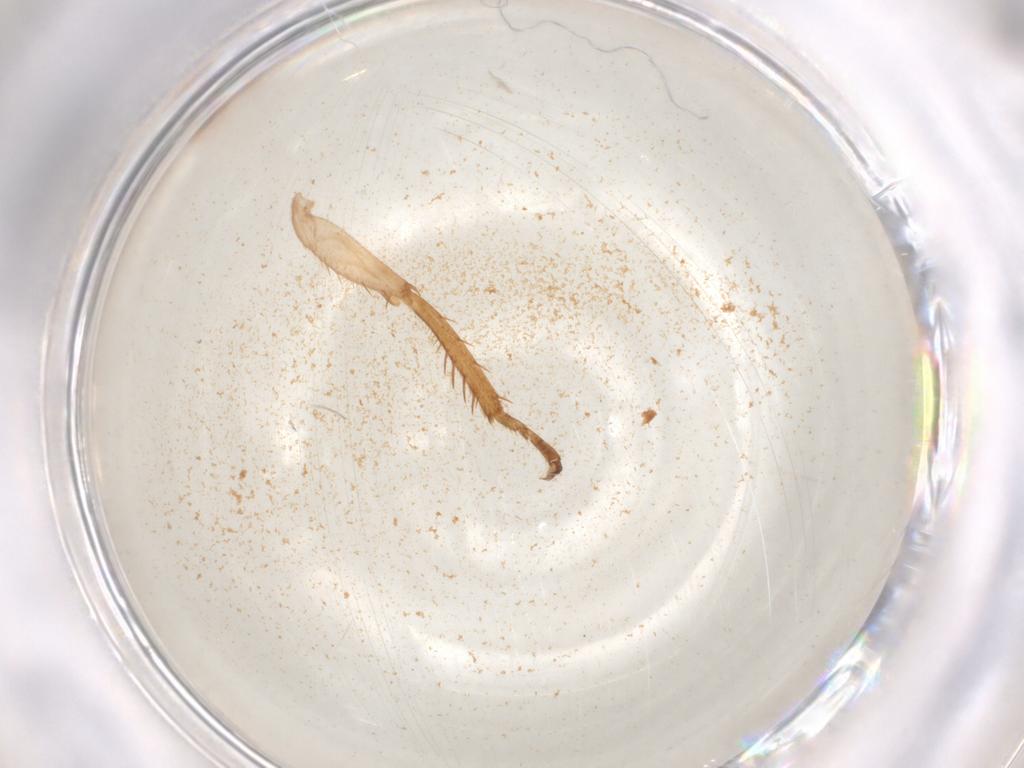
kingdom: Animalia
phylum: Arthropoda
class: Insecta
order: Hemiptera
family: Cicadellidae
